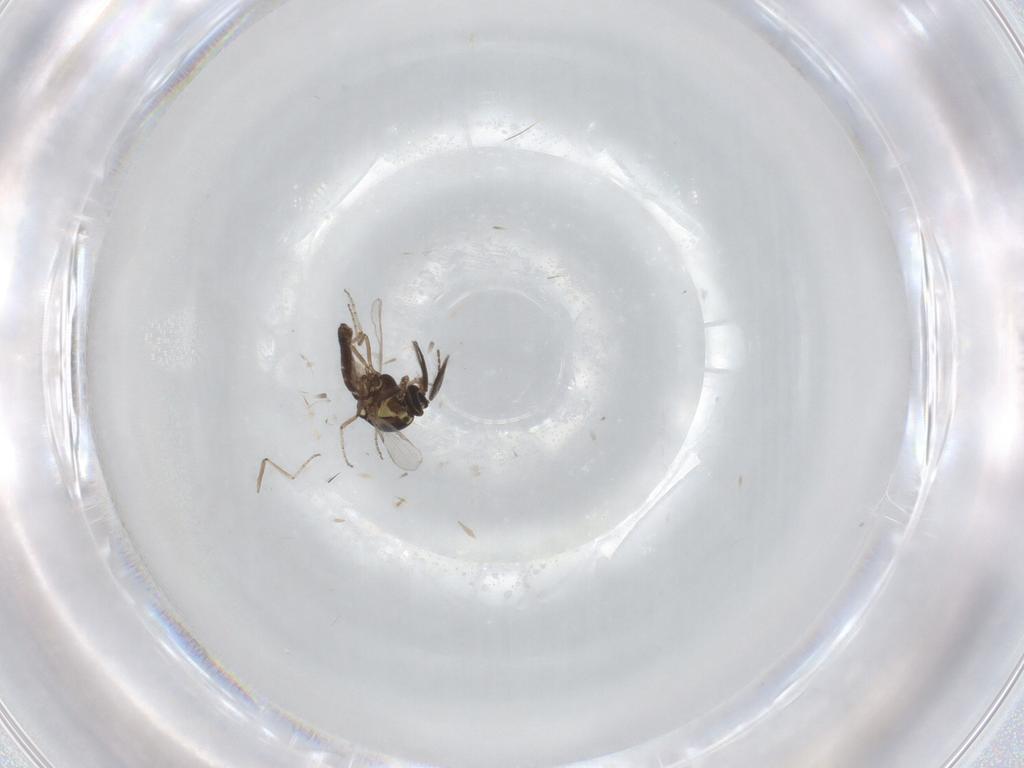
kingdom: Animalia
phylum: Arthropoda
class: Insecta
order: Diptera
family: Ceratopogonidae
